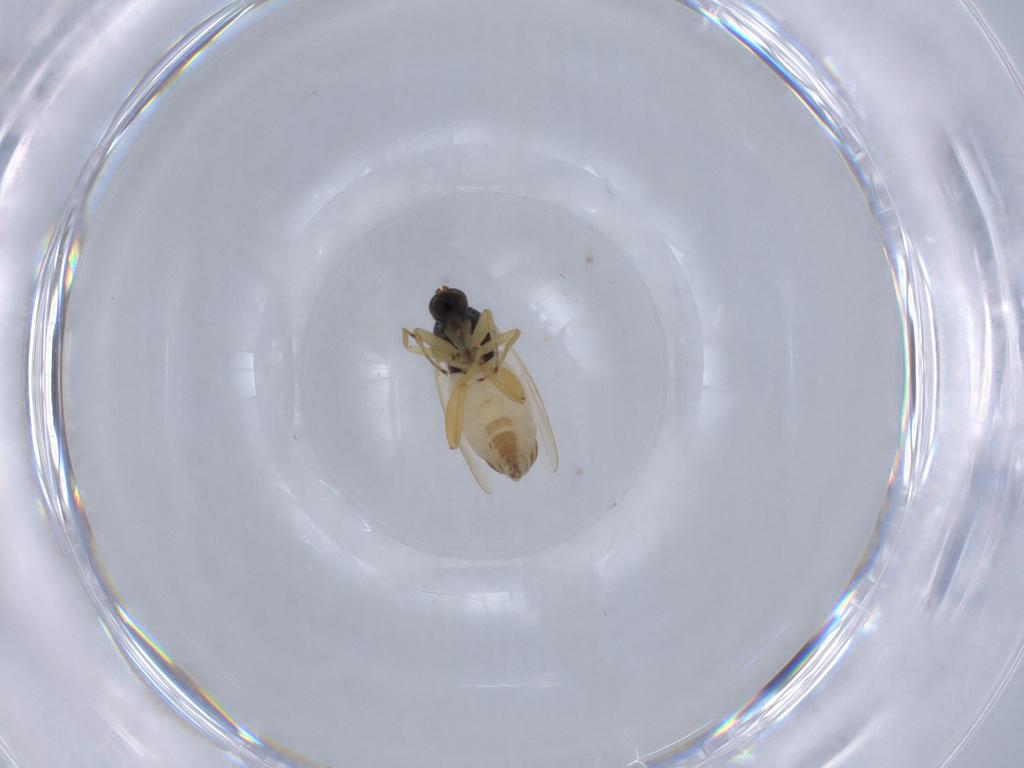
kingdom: Animalia
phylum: Arthropoda
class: Insecta
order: Diptera
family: Hybotidae
